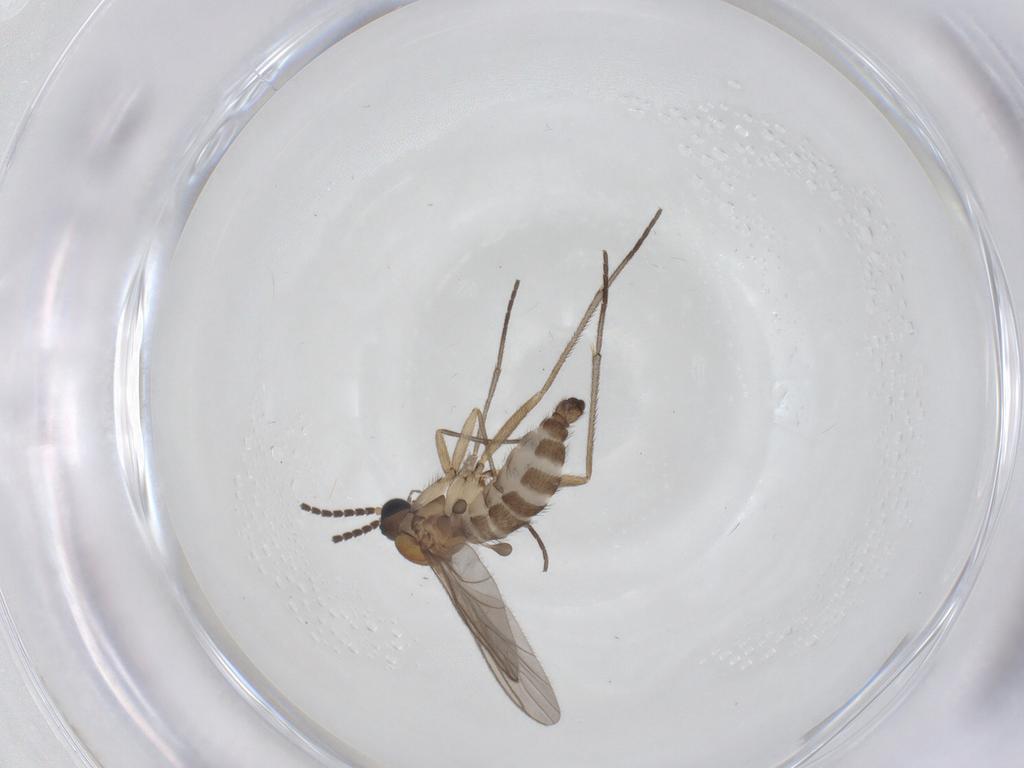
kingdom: Animalia
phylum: Arthropoda
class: Insecta
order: Diptera
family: Sciaridae
